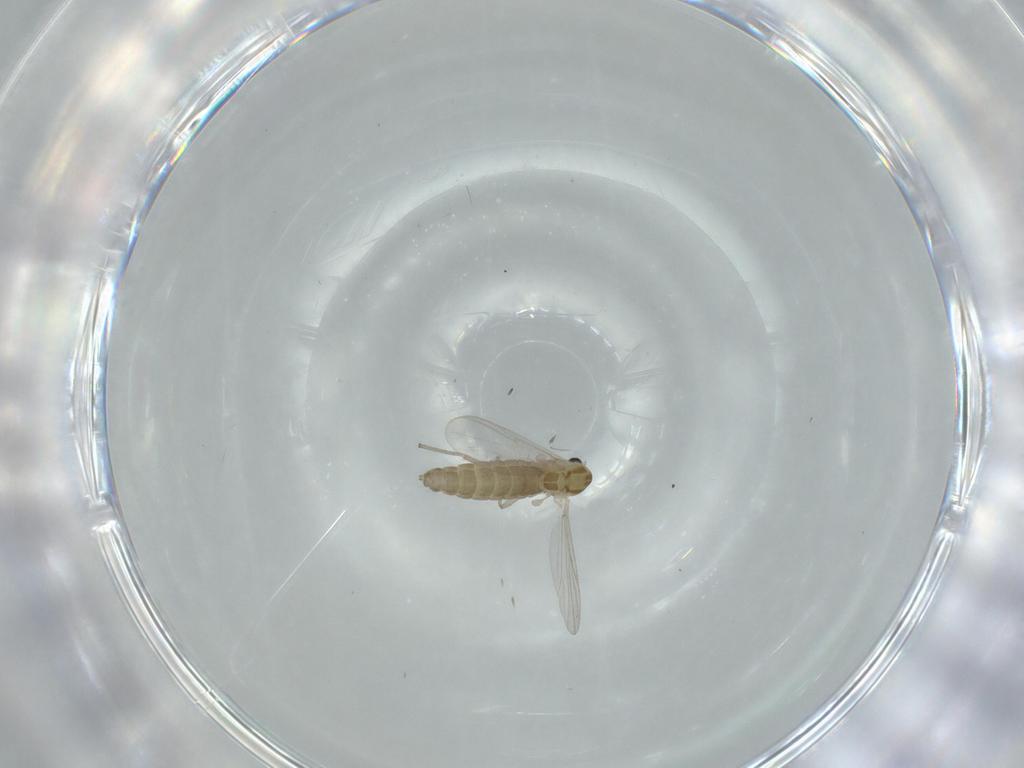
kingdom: Animalia
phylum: Arthropoda
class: Insecta
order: Diptera
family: Chironomidae
